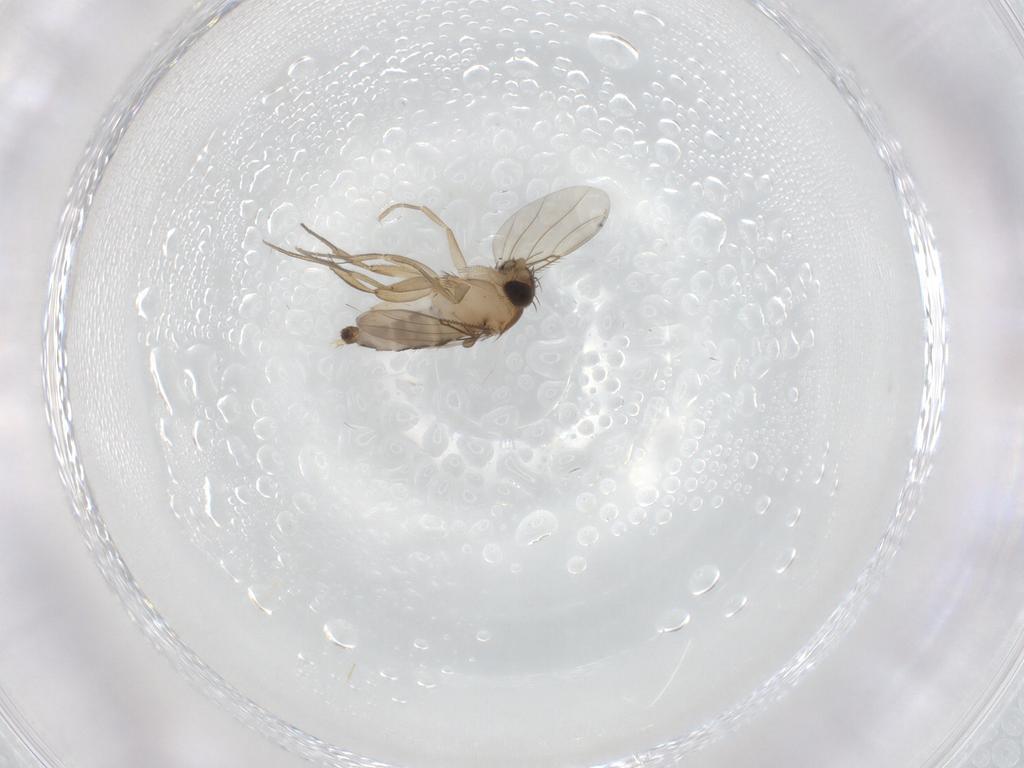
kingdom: Animalia
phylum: Arthropoda
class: Insecta
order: Diptera
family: Phoridae
